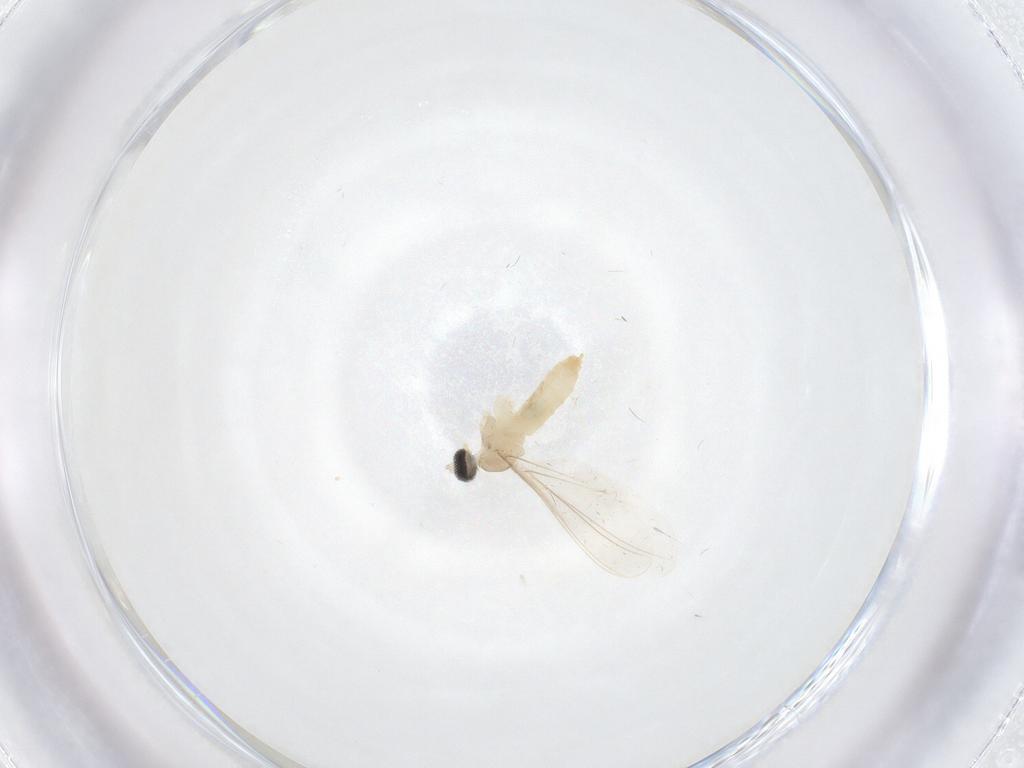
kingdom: Animalia
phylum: Arthropoda
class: Insecta
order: Diptera
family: Cecidomyiidae
